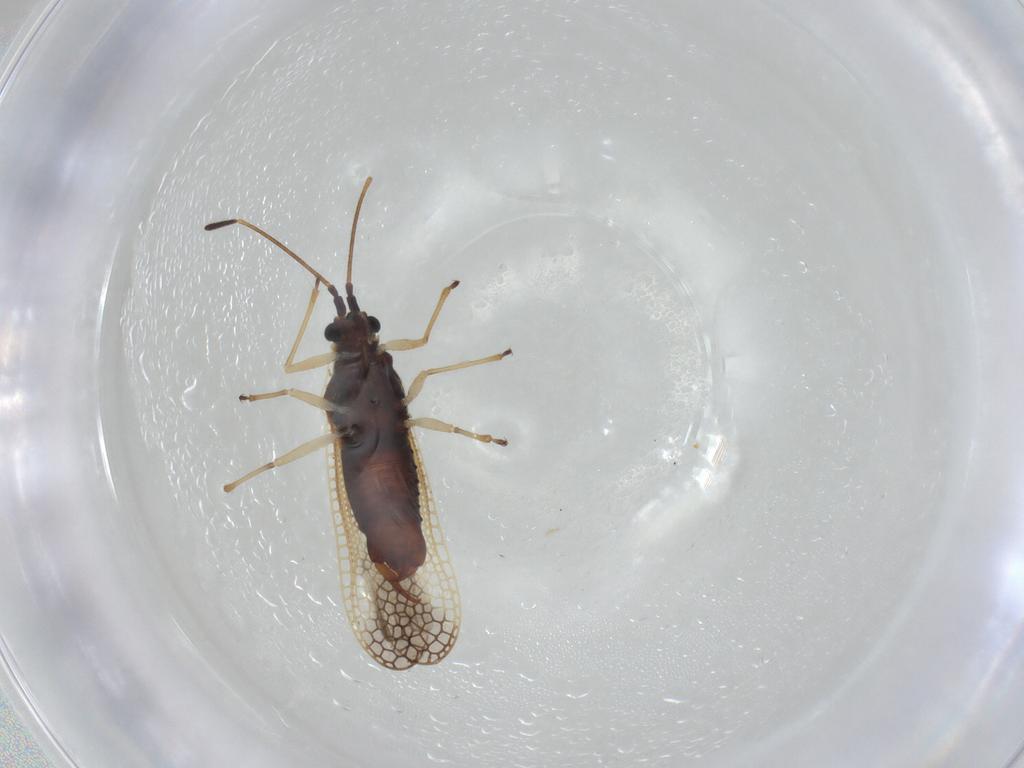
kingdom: Animalia
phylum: Arthropoda
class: Insecta
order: Hemiptera
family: Tingidae
